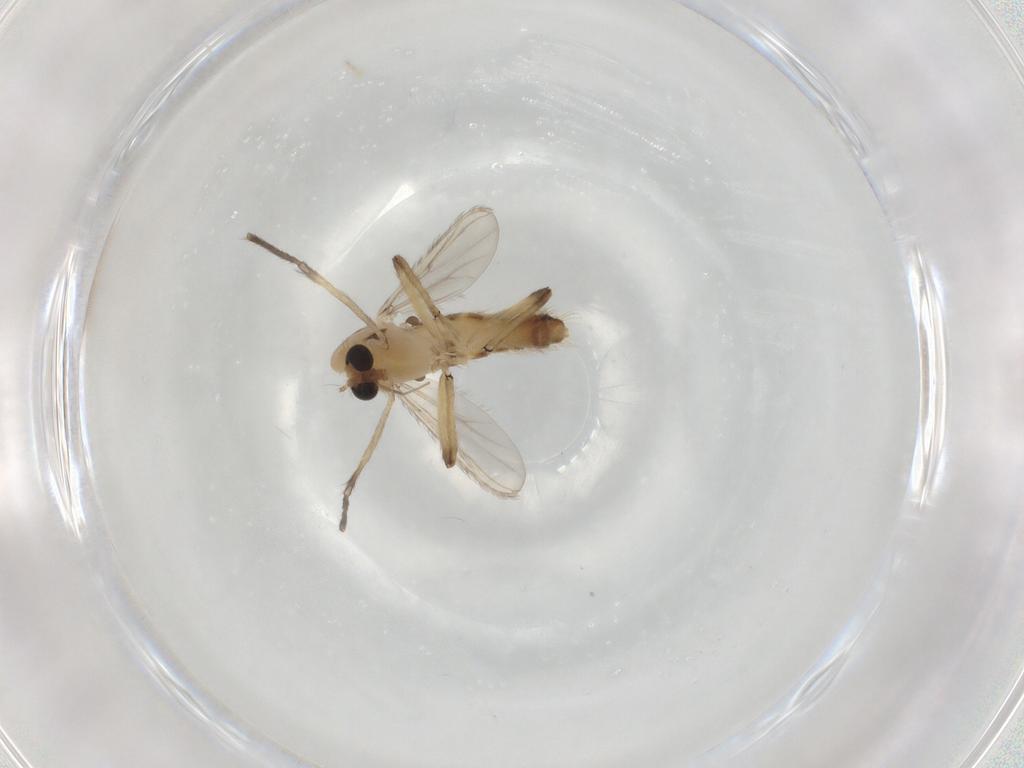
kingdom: Animalia
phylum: Arthropoda
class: Insecta
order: Diptera
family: Chironomidae
